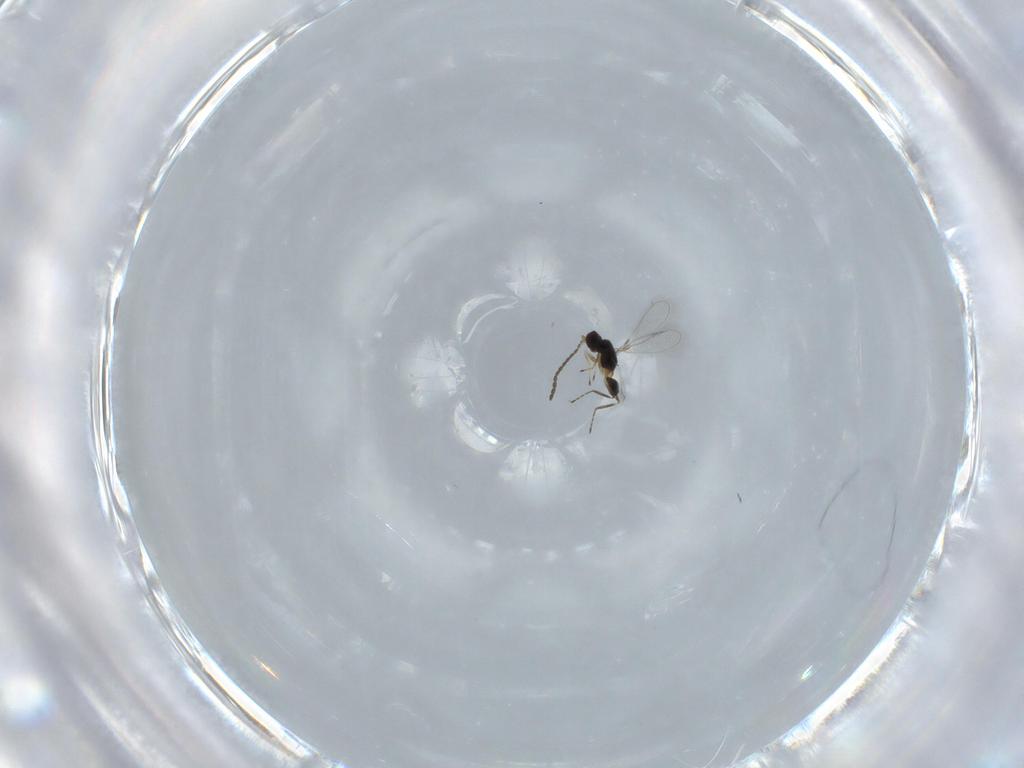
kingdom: Animalia
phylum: Arthropoda
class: Insecta
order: Hymenoptera
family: Mymaridae
